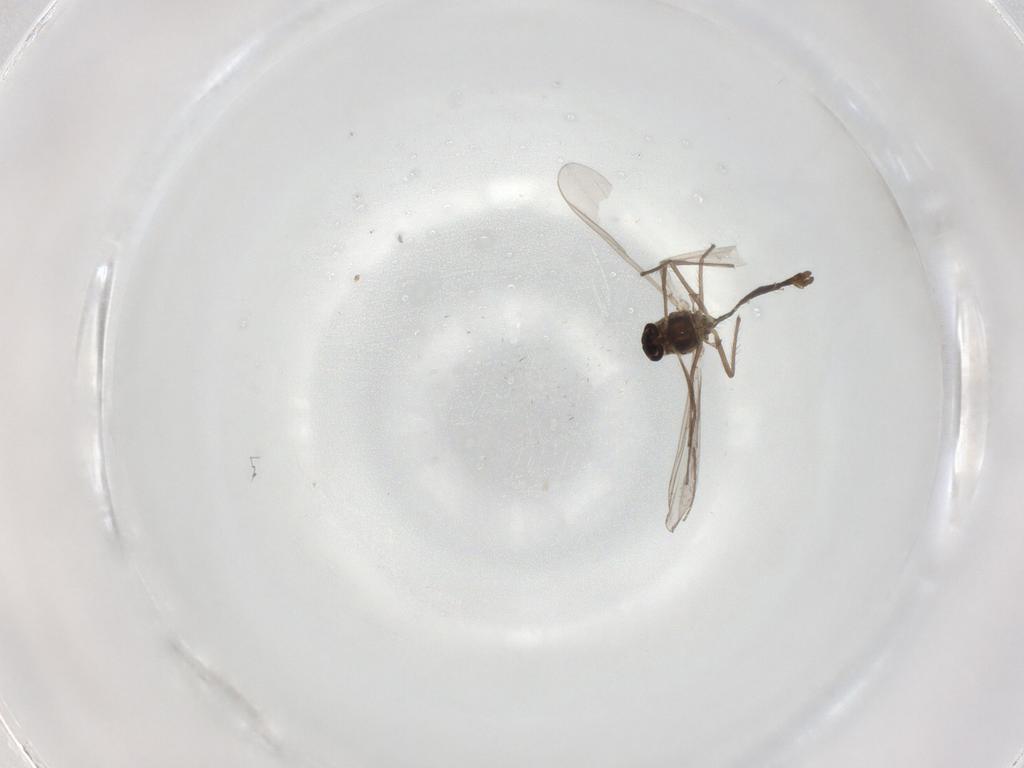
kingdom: Animalia
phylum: Arthropoda
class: Insecta
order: Diptera
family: Chironomidae
